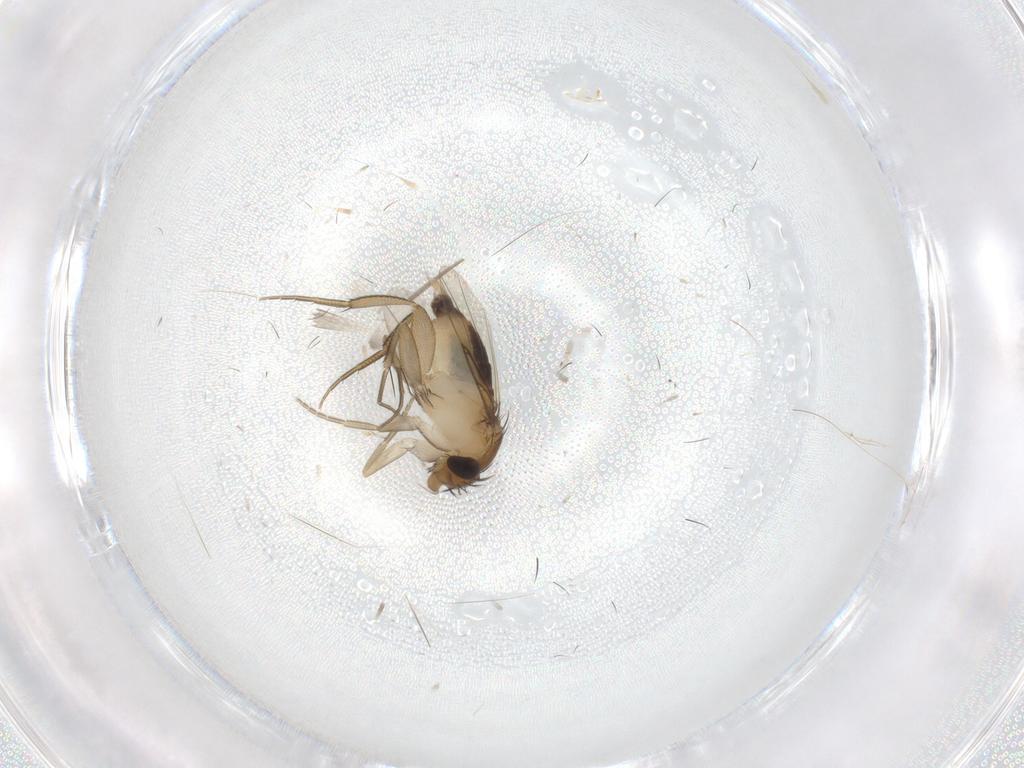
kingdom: Animalia
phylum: Arthropoda
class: Insecta
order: Diptera
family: Phoridae
